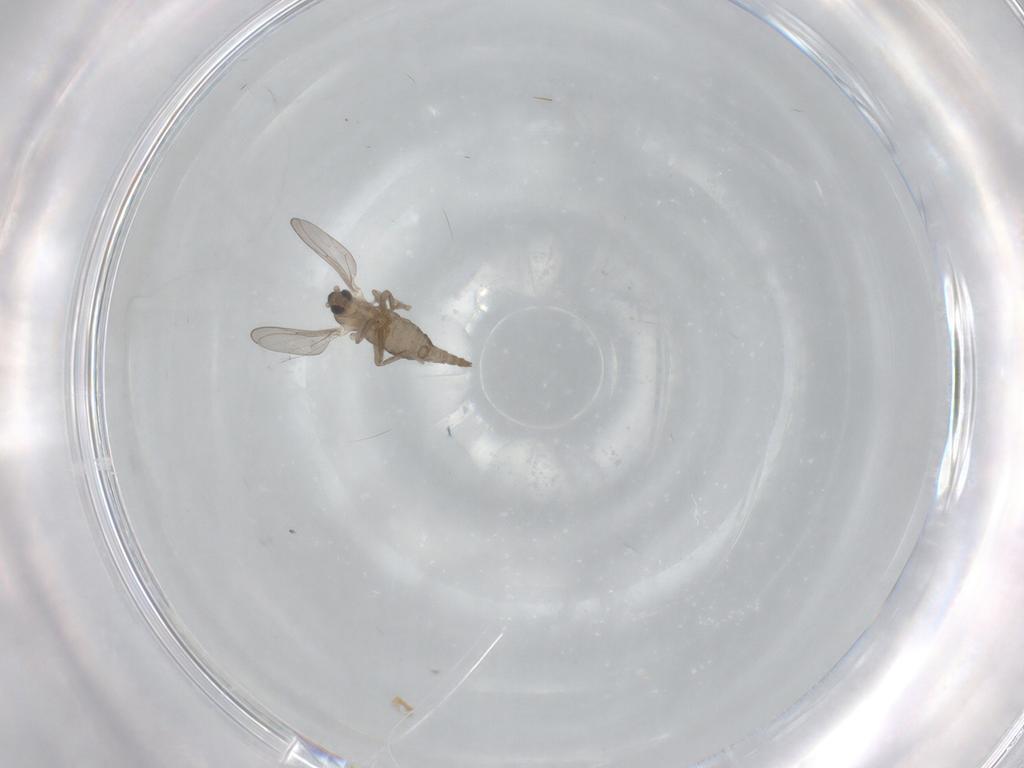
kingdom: Animalia
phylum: Arthropoda
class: Insecta
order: Diptera
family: Cecidomyiidae
